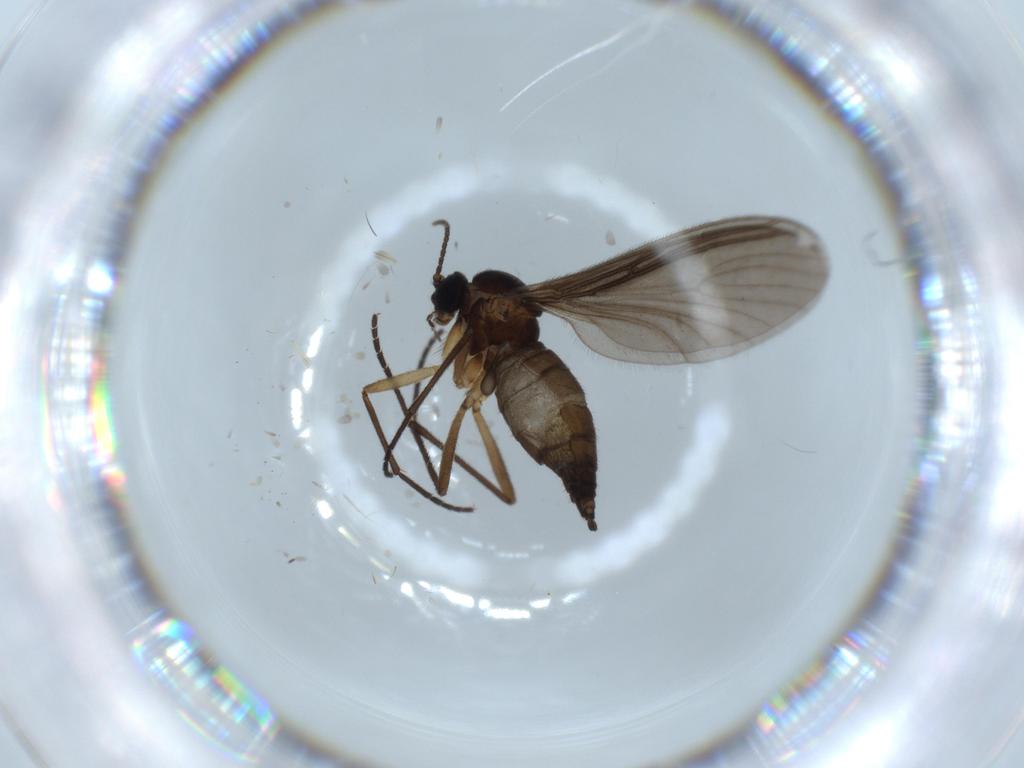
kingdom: Animalia
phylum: Arthropoda
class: Insecta
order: Diptera
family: Sciaridae
